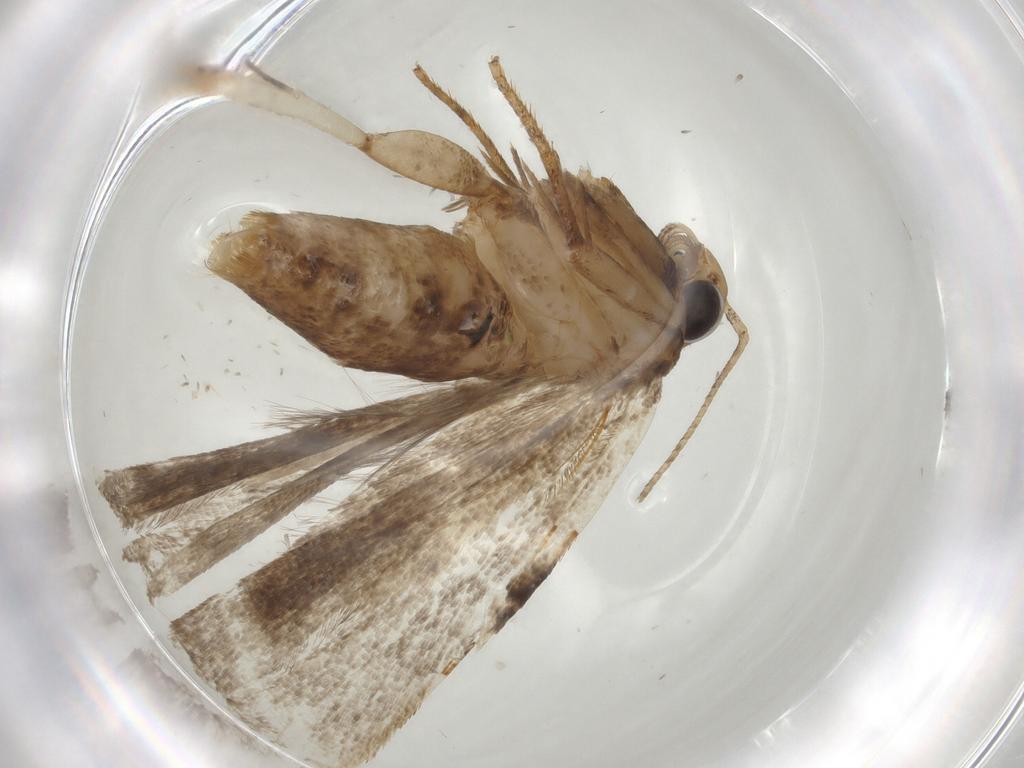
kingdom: Animalia
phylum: Arthropoda
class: Insecta
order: Lepidoptera
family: Gelechiidae
